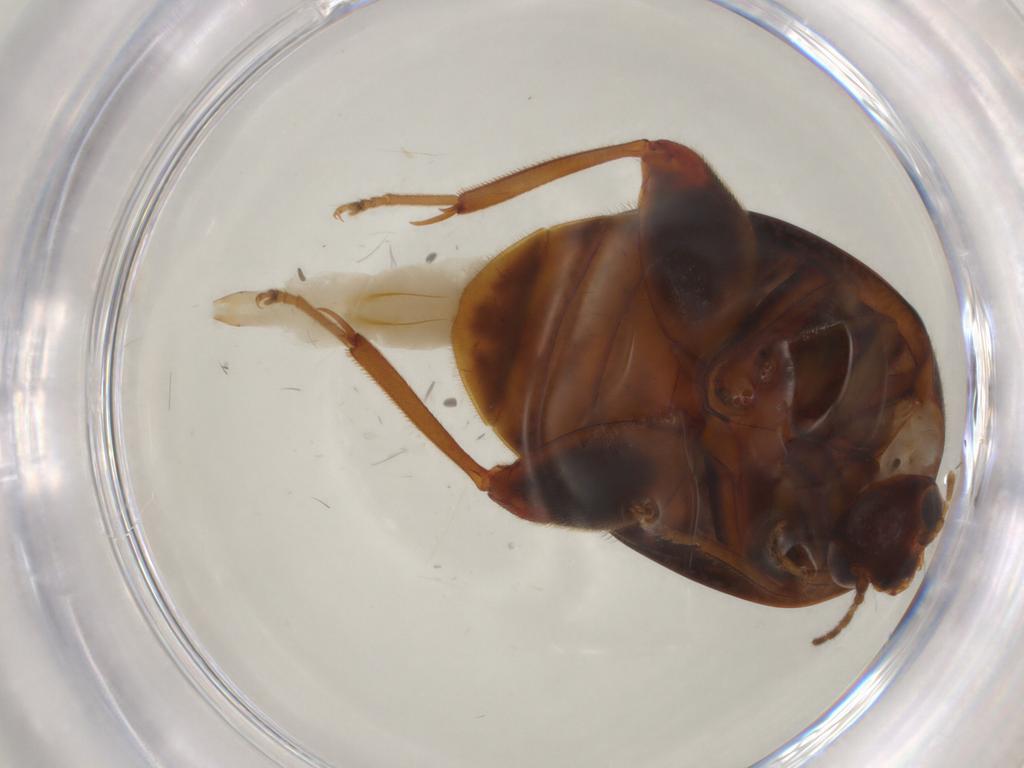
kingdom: Animalia
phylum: Arthropoda
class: Insecta
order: Coleoptera
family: Scirtidae
